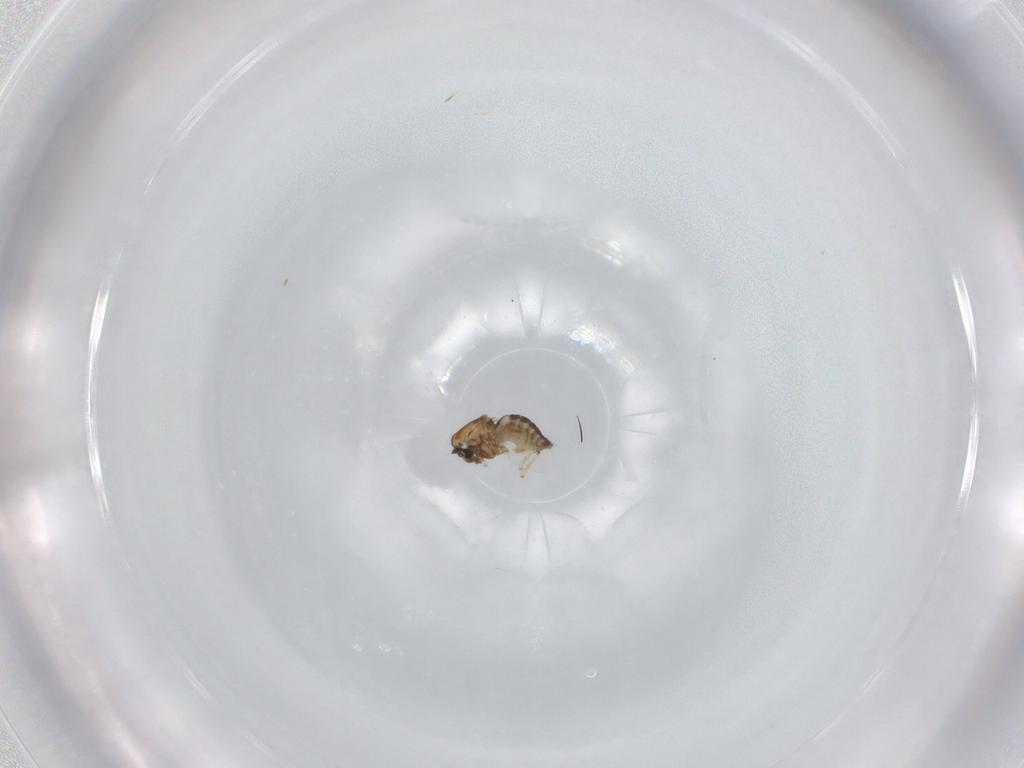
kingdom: Animalia
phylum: Arthropoda
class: Insecta
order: Diptera
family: Ceratopogonidae
